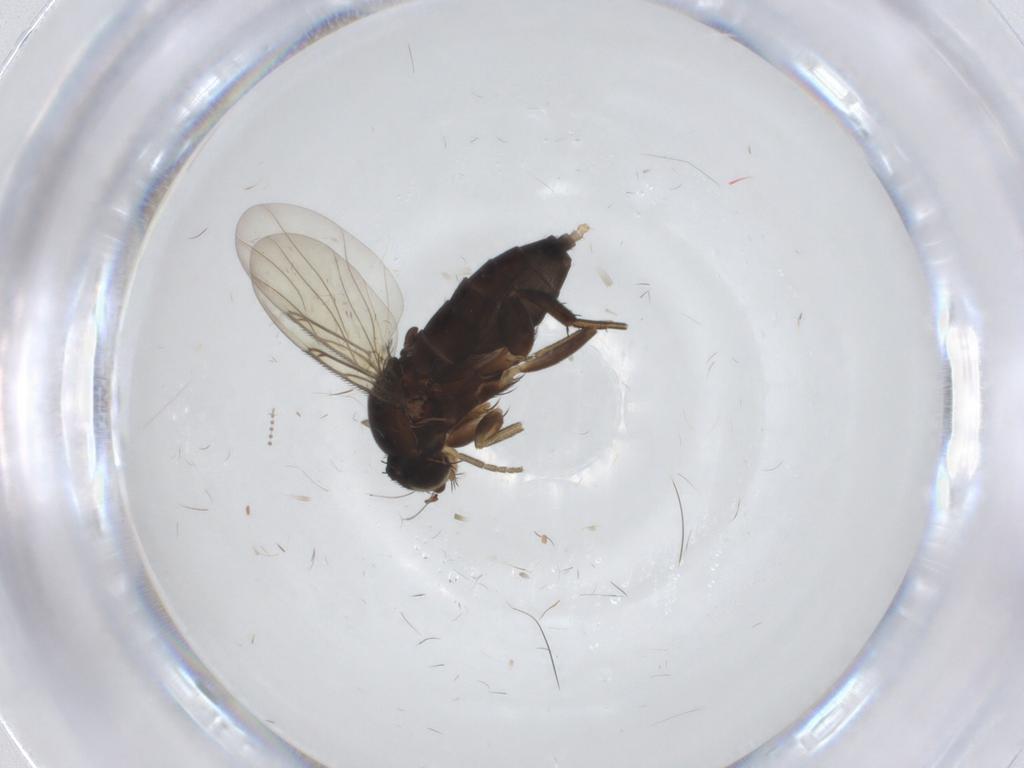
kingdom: Animalia
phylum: Arthropoda
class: Insecta
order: Diptera
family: Phoridae
